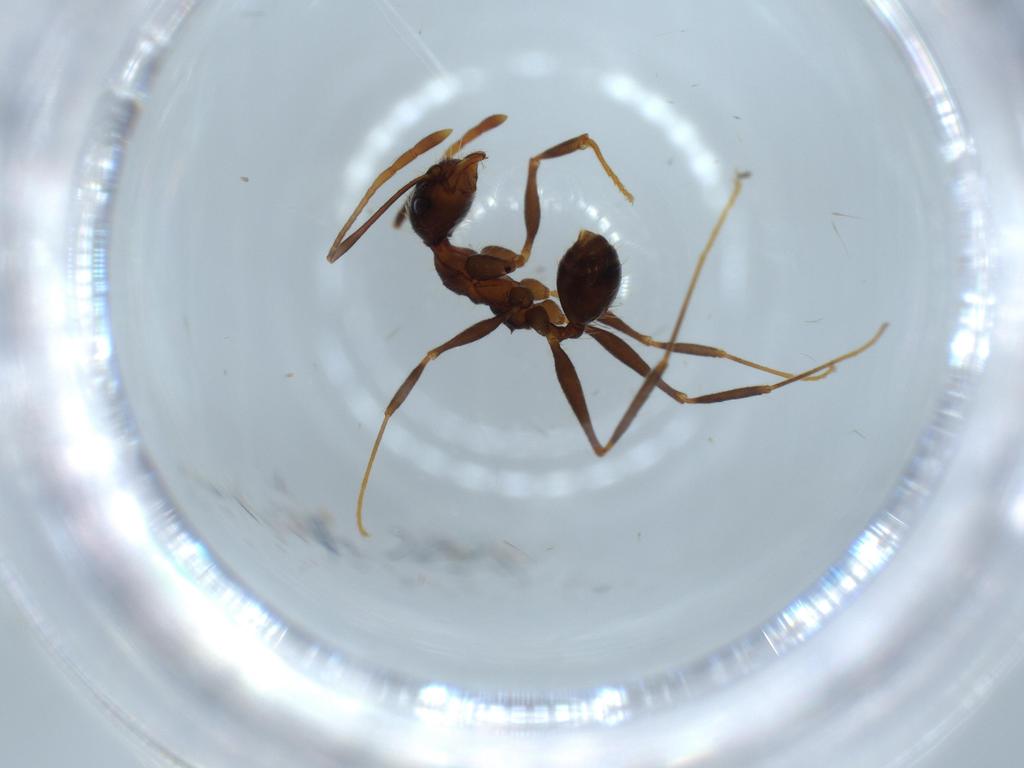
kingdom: Animalia
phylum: Arthropoda
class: Insecta
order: Hymenoptera
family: Formicidae
